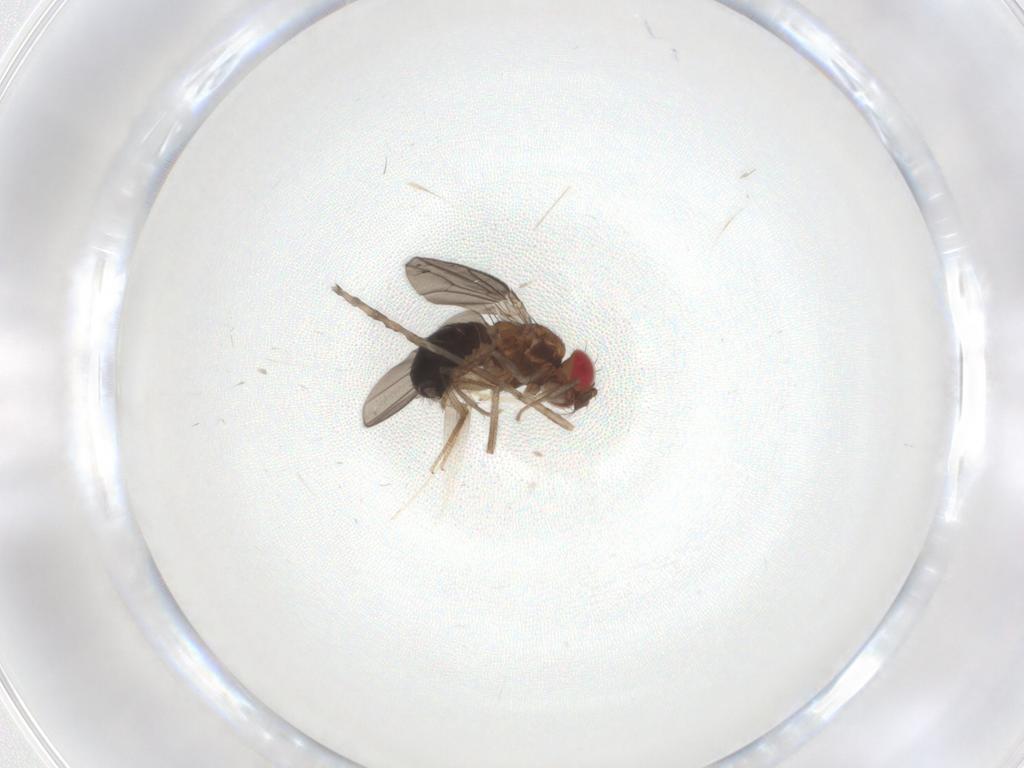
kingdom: Animalia
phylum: Arthropoda
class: Insecta
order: Diptera
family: Drosophilidae
